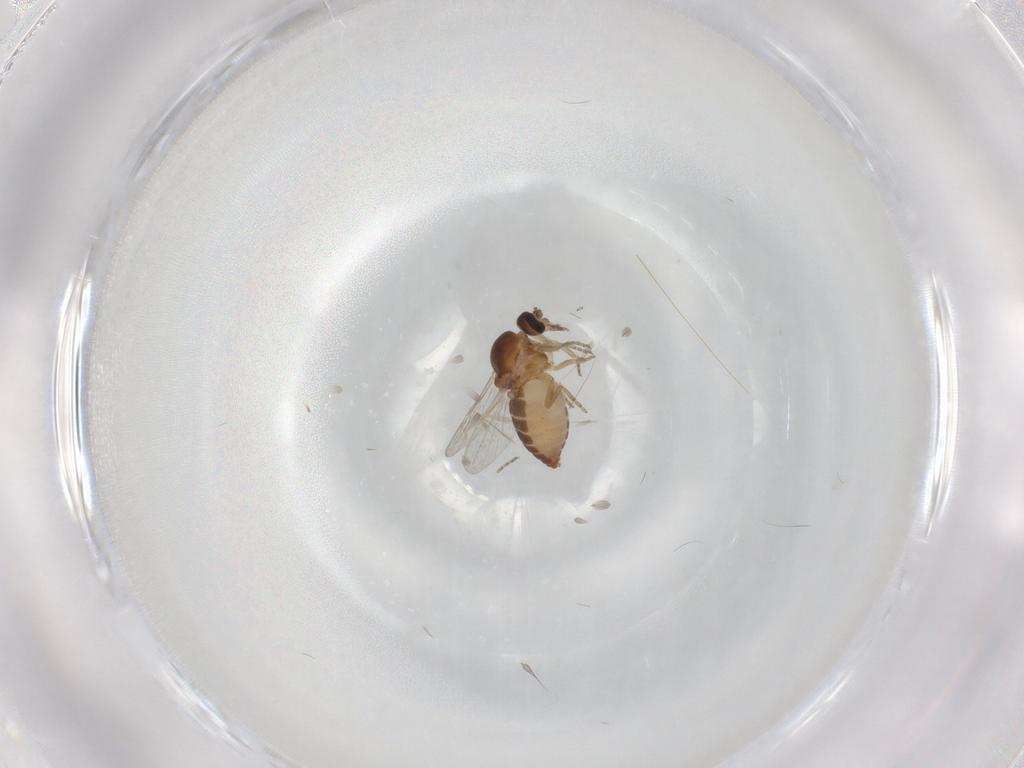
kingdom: Animalia
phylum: Arthropoda
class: Insecta
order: Diptera
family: Ceratopogonidae
